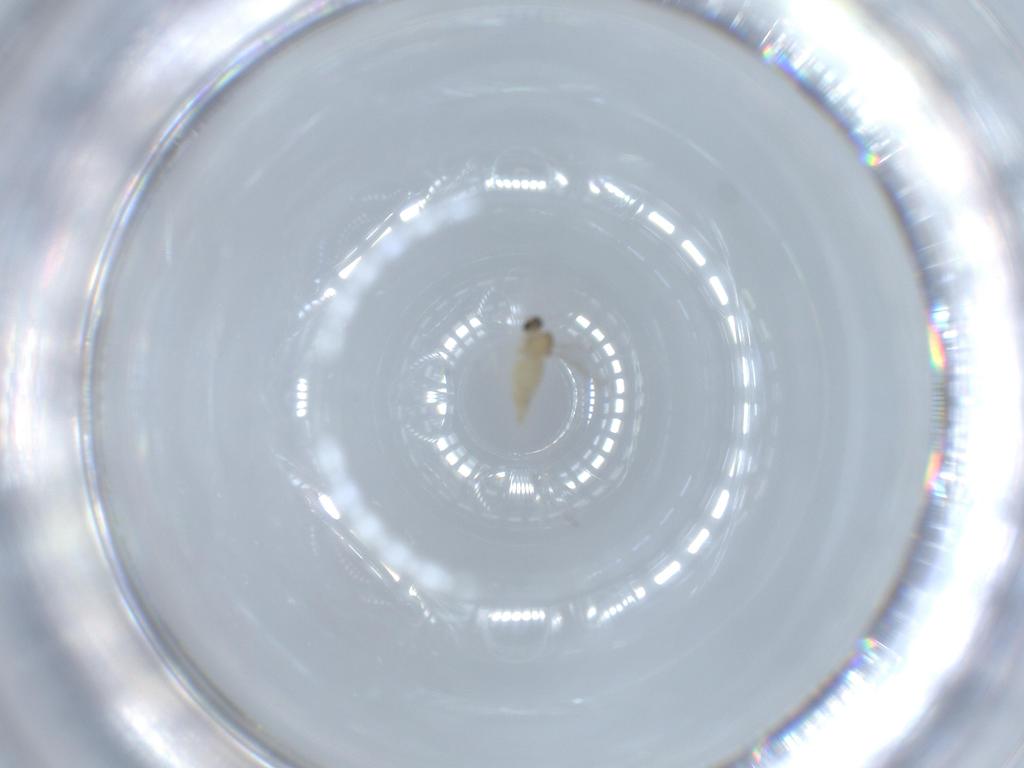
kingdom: Animalia
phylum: Arthropoda
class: Insecta
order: Diptera
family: Cecidomyiidae
